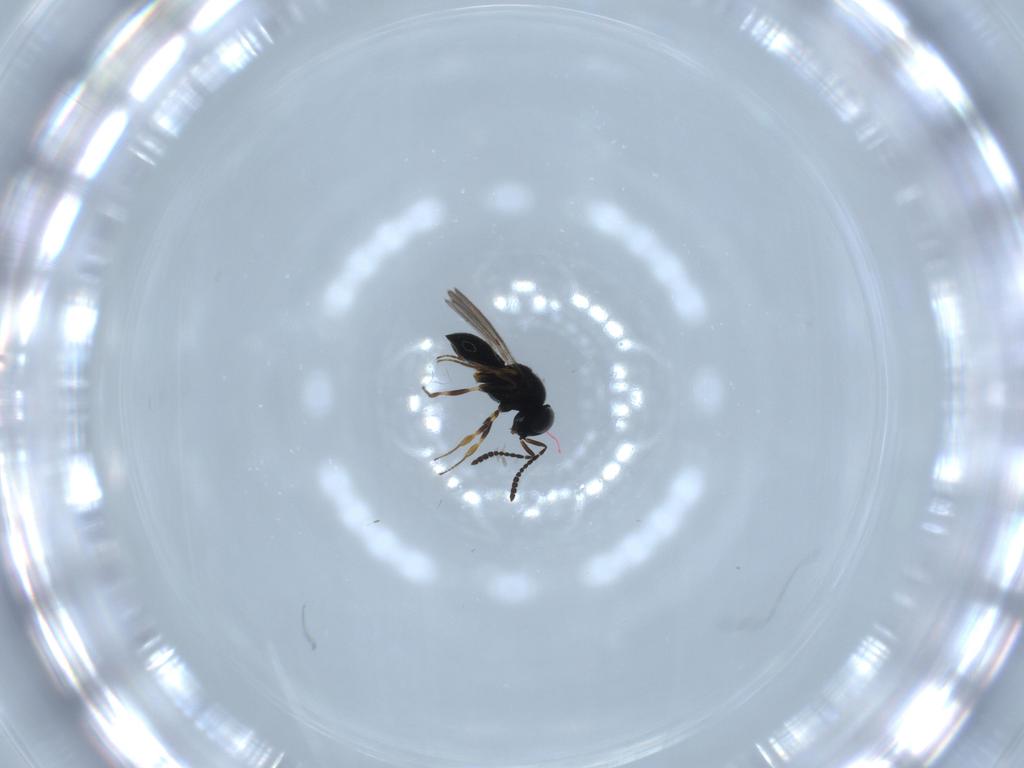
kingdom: Animalia
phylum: Arthropoda
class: Insecta
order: Hymenoptera
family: Scelionidae
